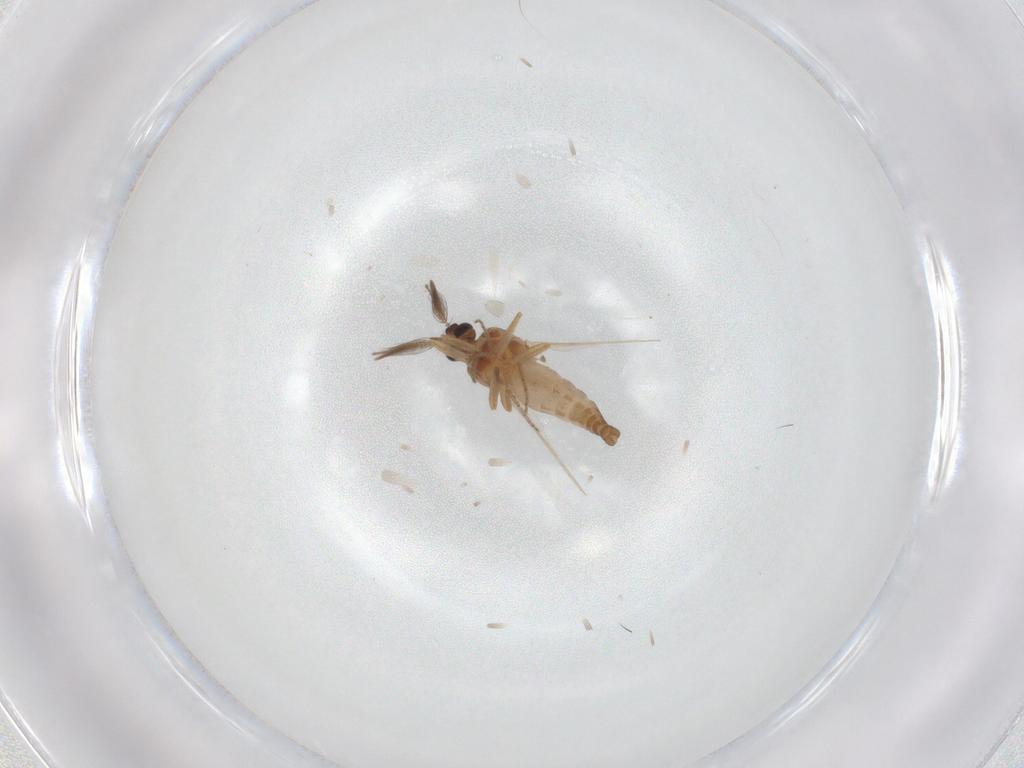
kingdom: Animalia
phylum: Arthropoda
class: Insecta
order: Diptera
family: Ceratopogonidae
